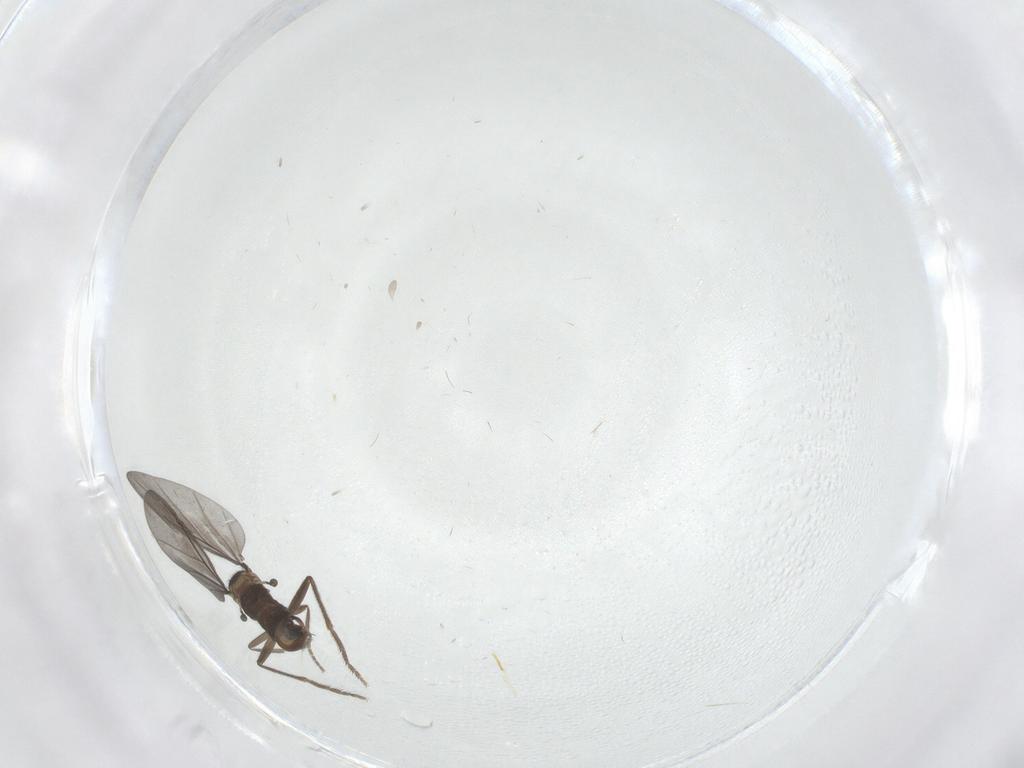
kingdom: Animalia
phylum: Arthropoda
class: Insecta
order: Diptera
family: Phoridae
